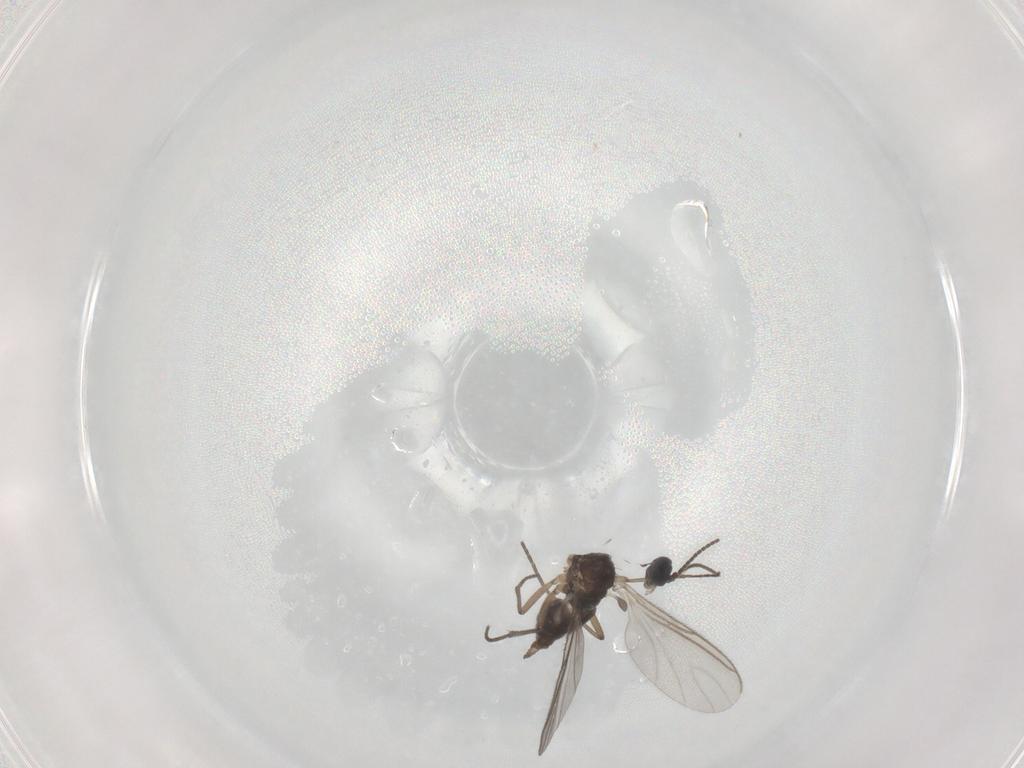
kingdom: Animalia
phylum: Arthropoda
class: Insecta
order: Diptera
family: Sciaridae
